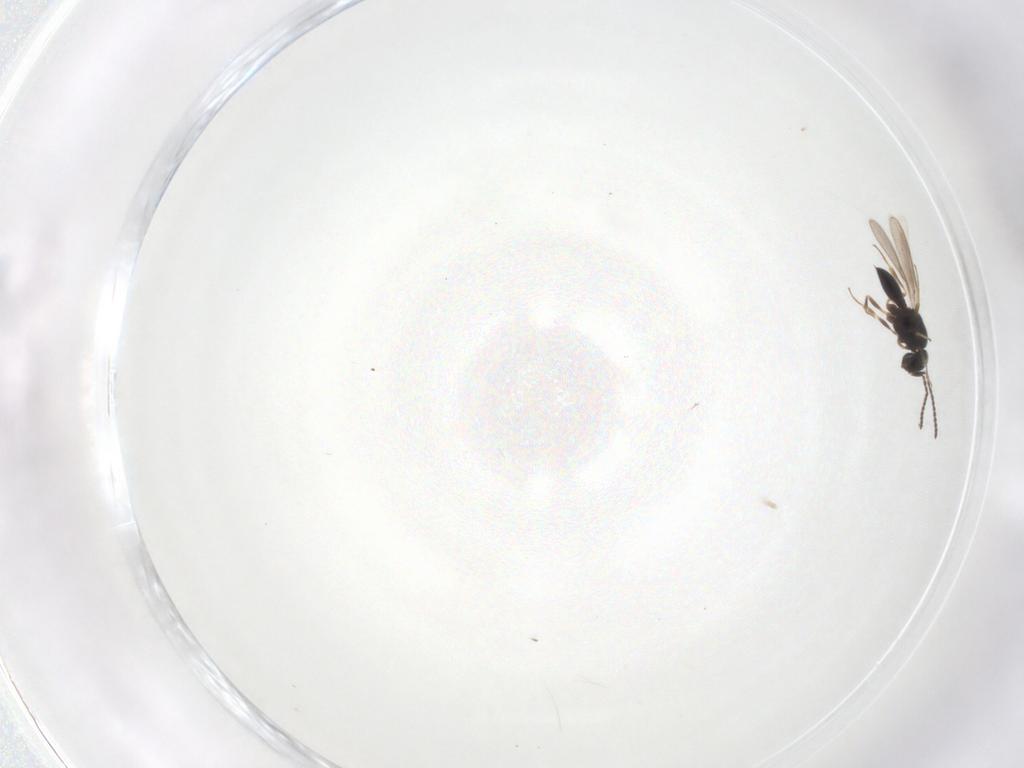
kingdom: Animalia
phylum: Arthropoda
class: Insecta
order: Hymenoptera
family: Scelionidae
